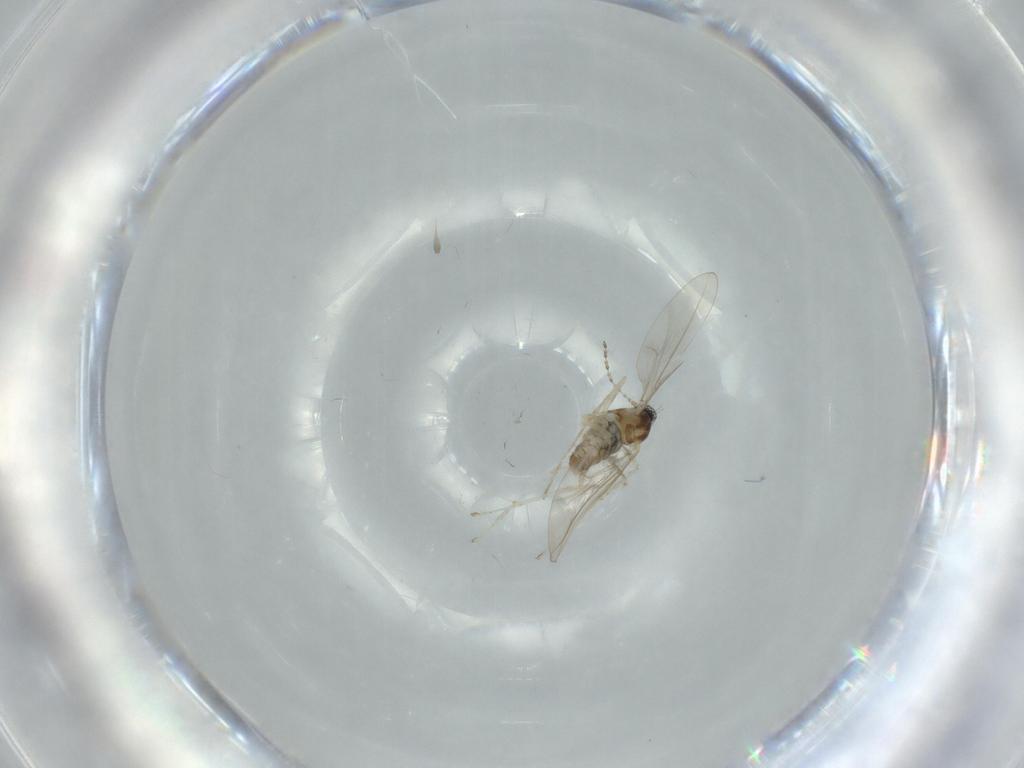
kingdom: Animalia
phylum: Arthropoda
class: Insecta
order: Diptera
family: Cecidomyiidae
